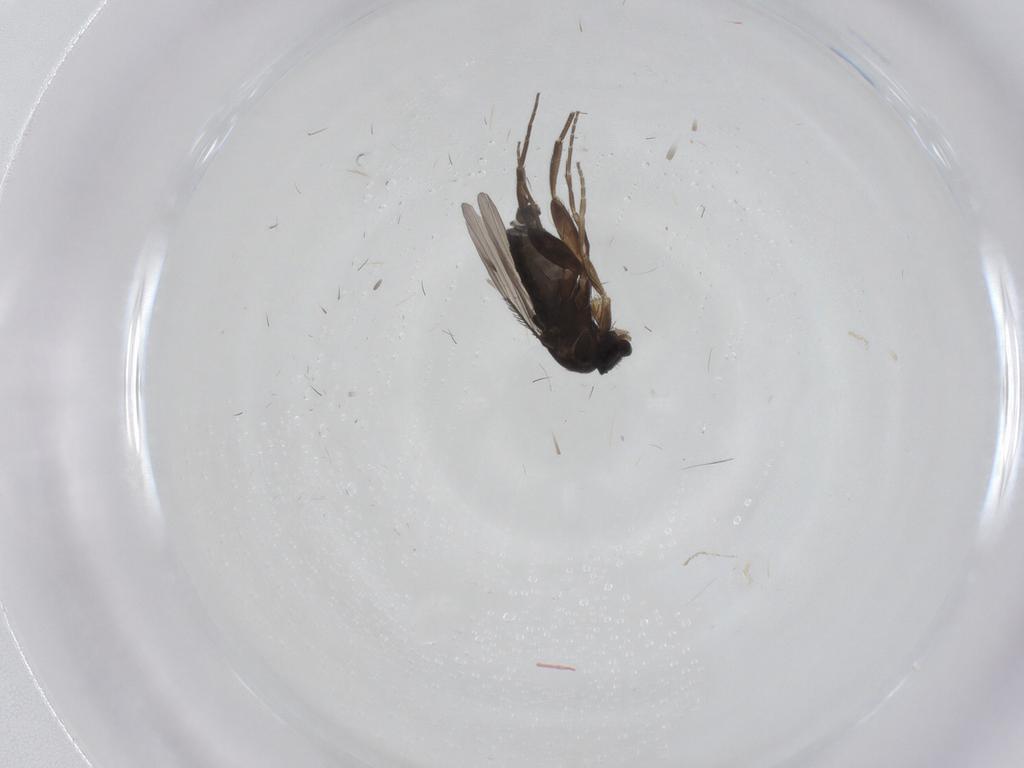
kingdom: Animalia
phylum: Arthropoda
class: Insecta
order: Diptera
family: Phoridae
